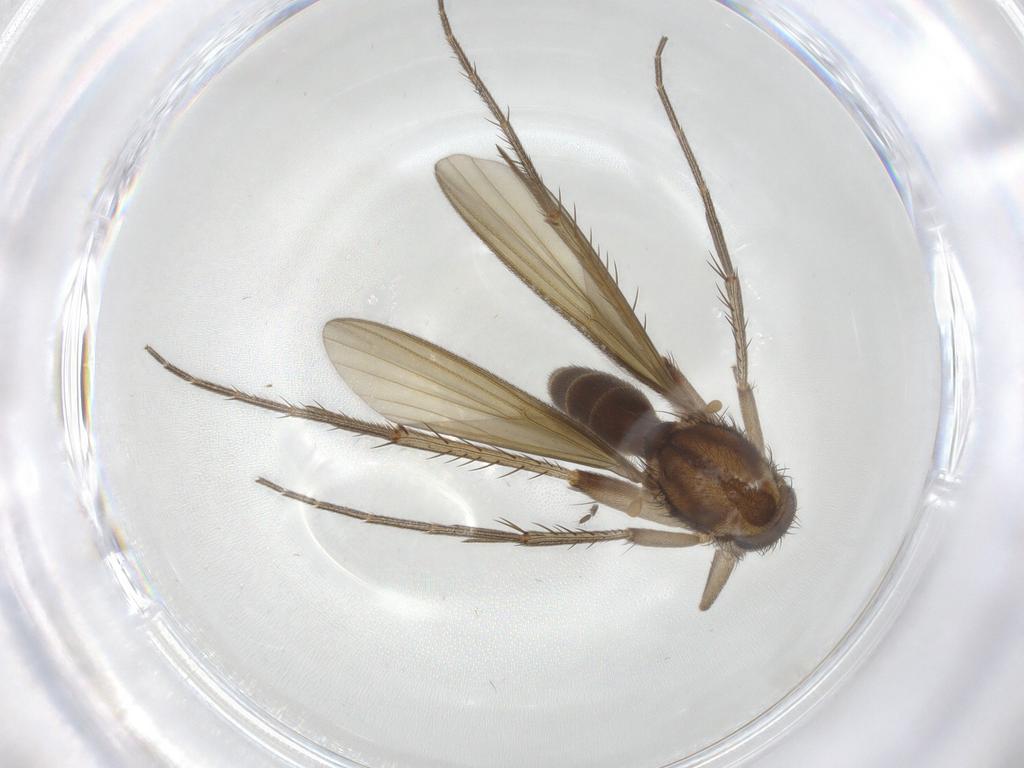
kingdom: Animalia
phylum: Arthropoda
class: Insecta
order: Diptera
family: Mycetophilidae
